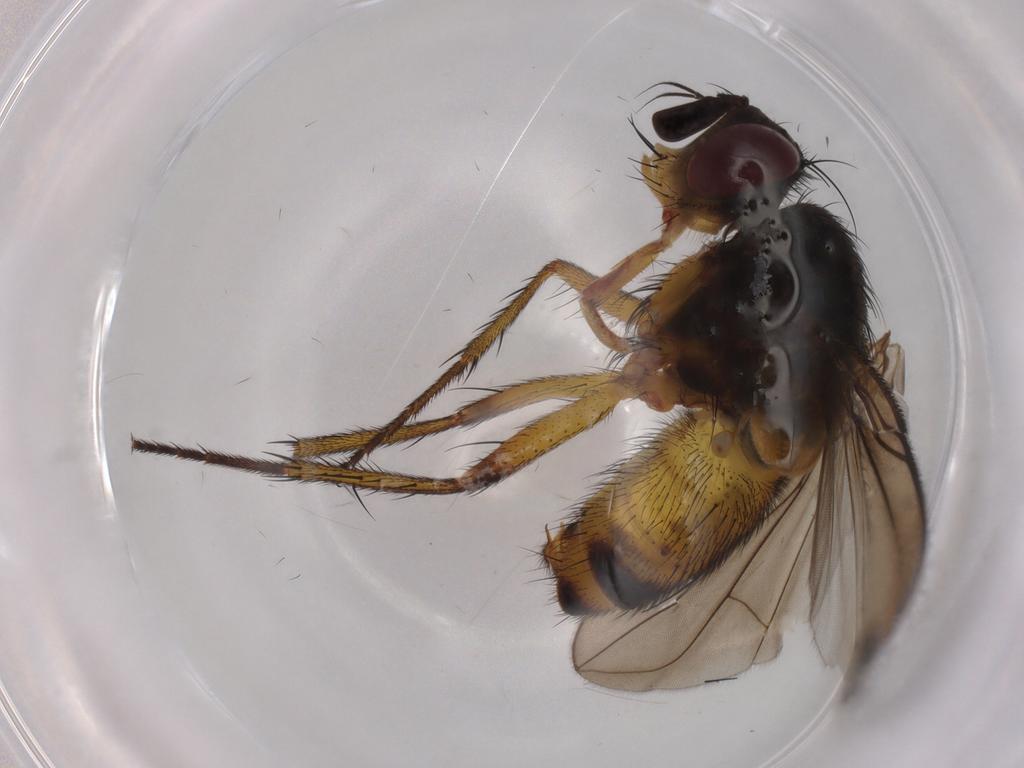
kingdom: Animalia
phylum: Arthropoda
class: Insecta
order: Diptera
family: Tachinidae
